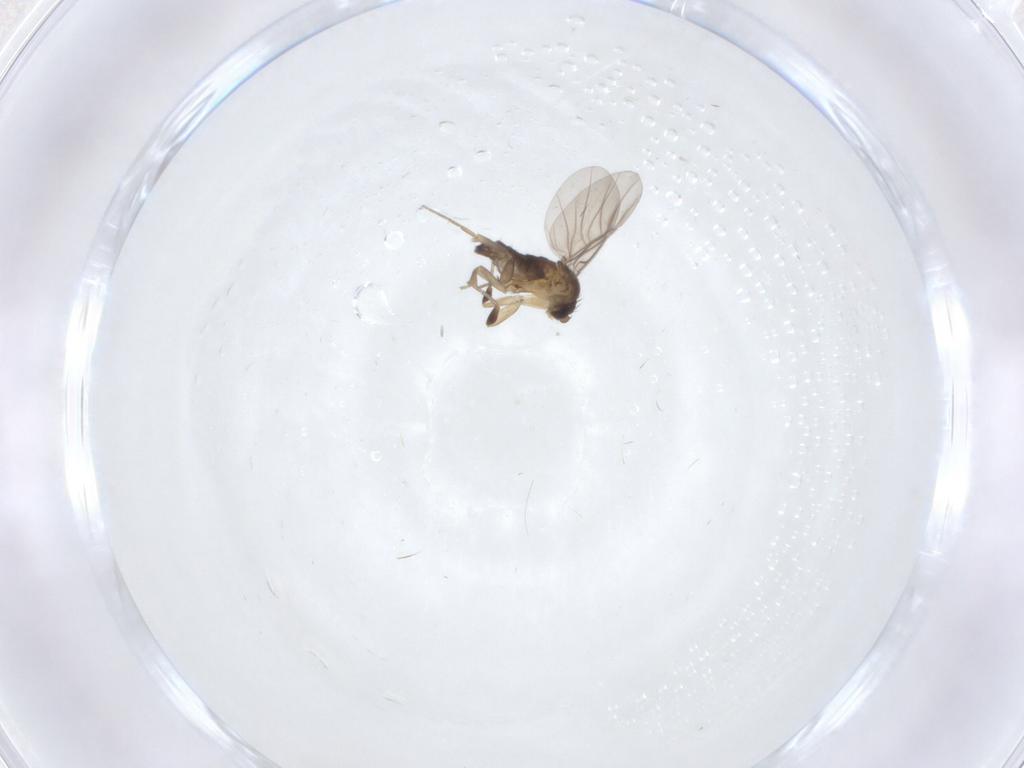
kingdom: Animalia
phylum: Arthropoda
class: Insecta
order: Diptera
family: Phoridae
